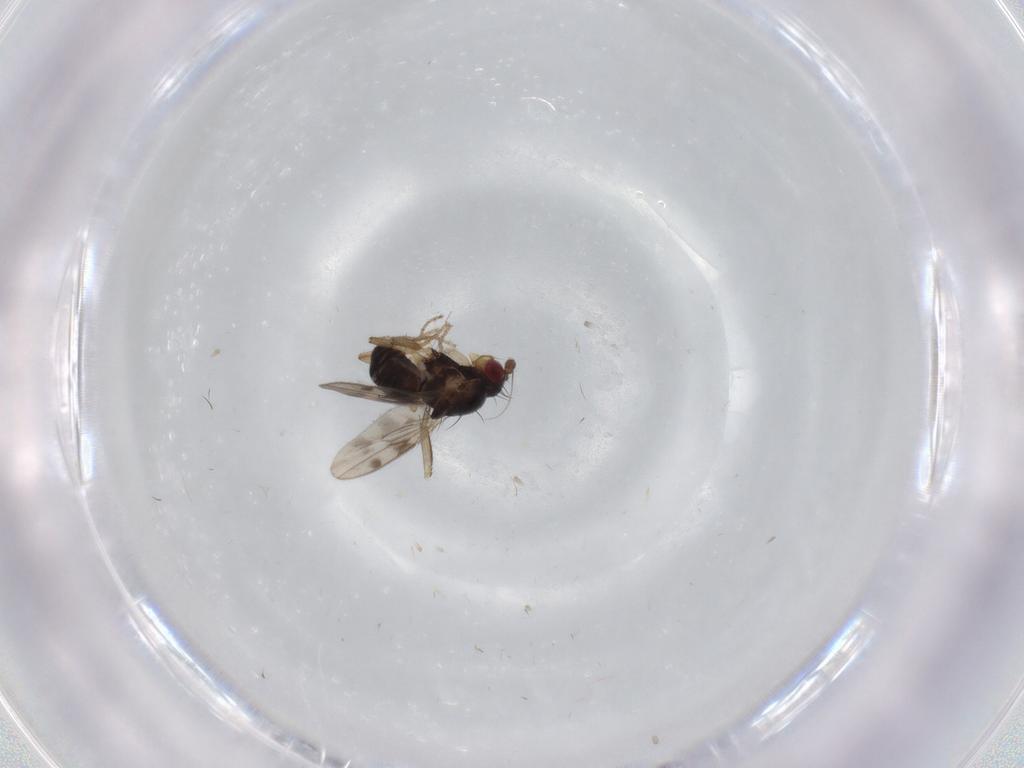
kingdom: Animalia
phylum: Arthropoda
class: Insecta
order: Diptera
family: Sphaeroceridae
